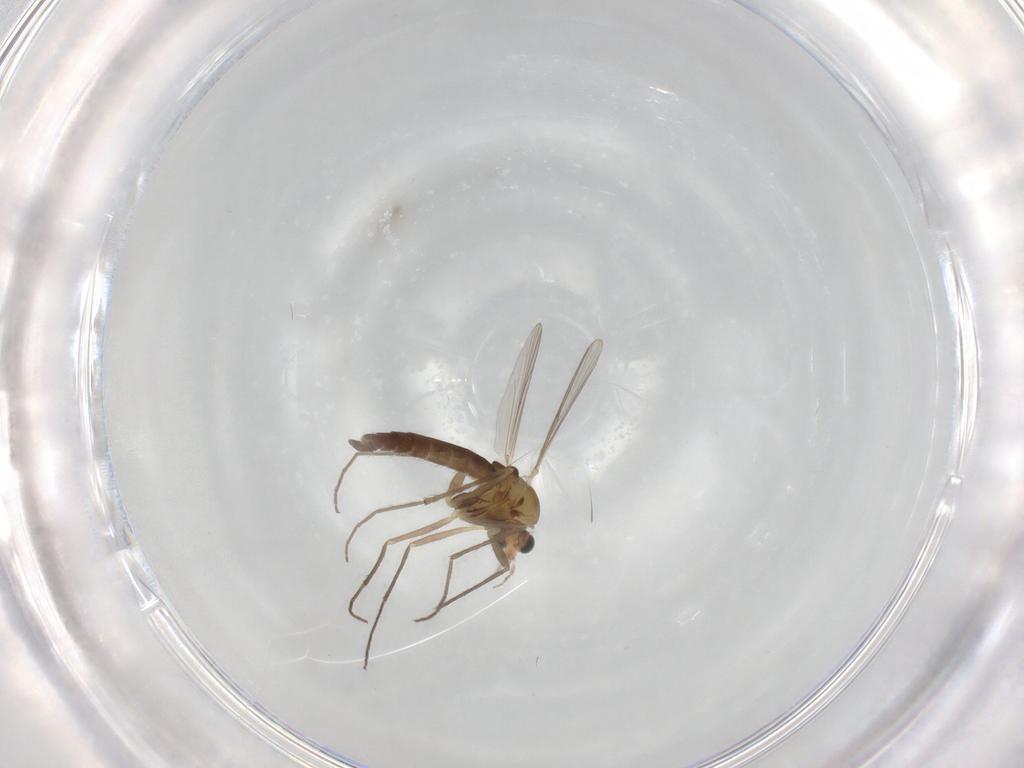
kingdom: Animalia
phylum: Arthropoda
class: Insecta
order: Diptera
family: Chironomidae
